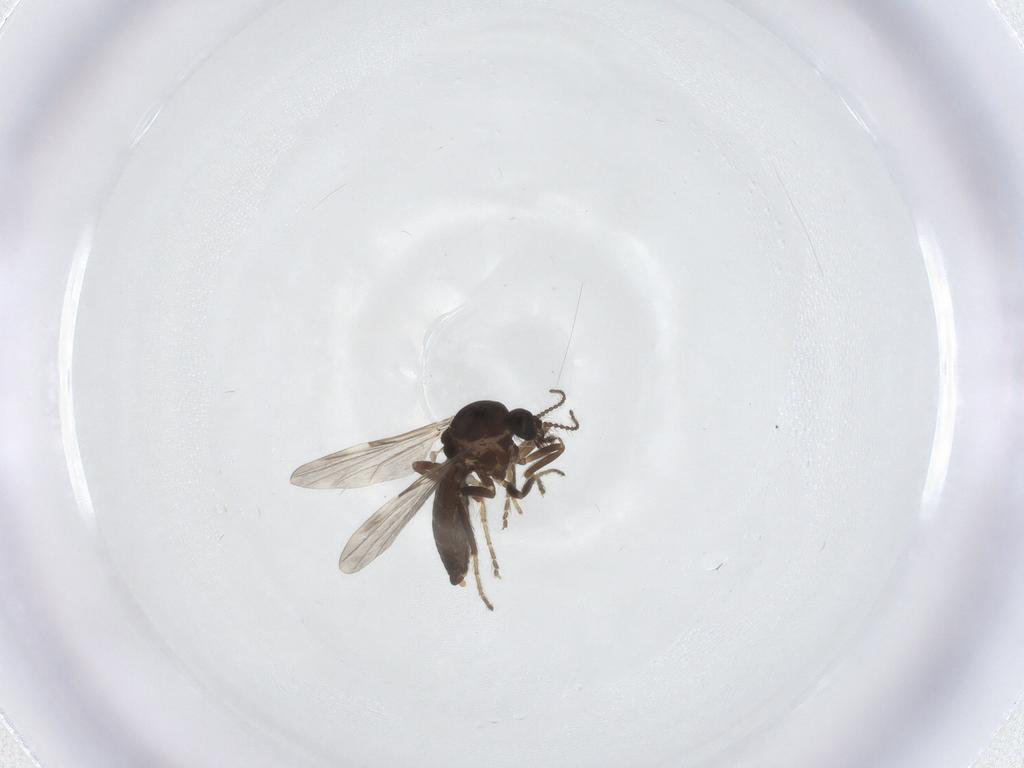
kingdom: Animalia
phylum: Arthropoda
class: Insecta
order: Diptera
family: Ceratopogonidae
